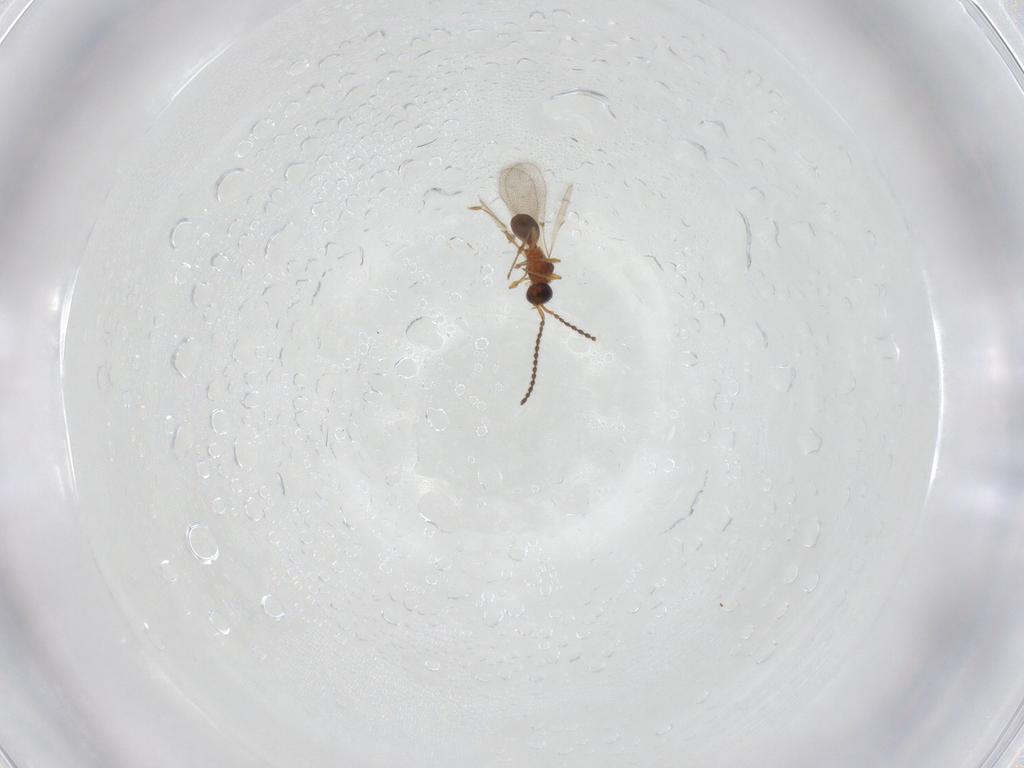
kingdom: Animalia
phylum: Arthropoda
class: Insecta
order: Hymenoptera
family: Diapriidae
